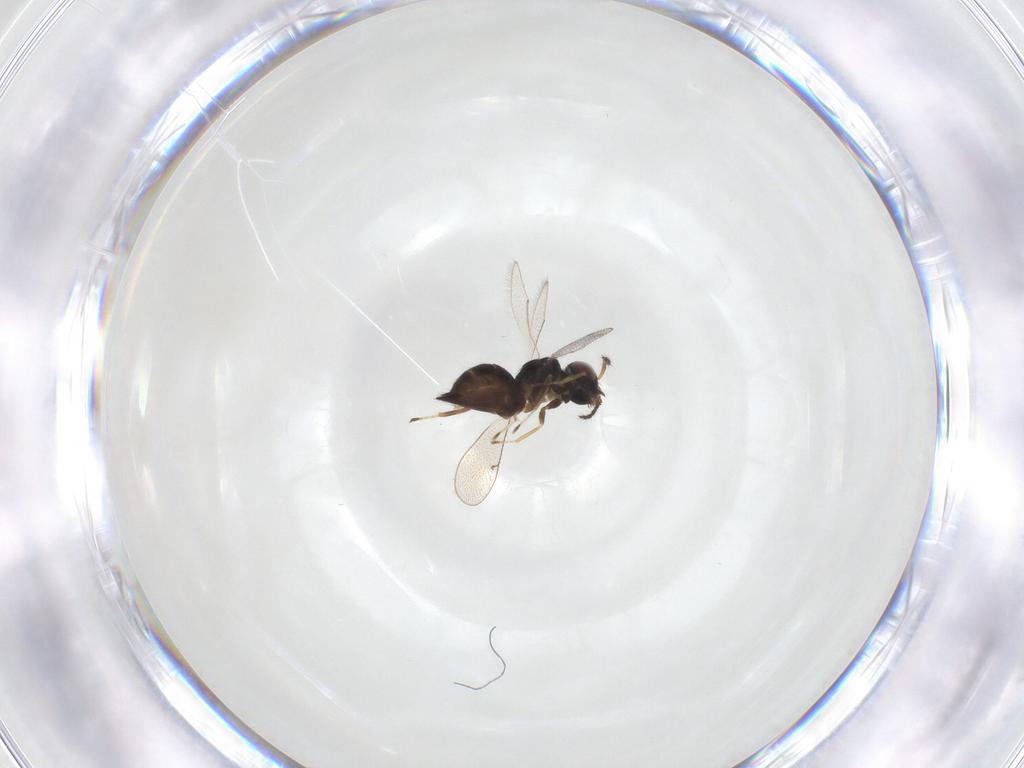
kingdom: Animalia
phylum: Arthropoda
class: Insecta
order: Hymenoptera
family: Eulophidae
